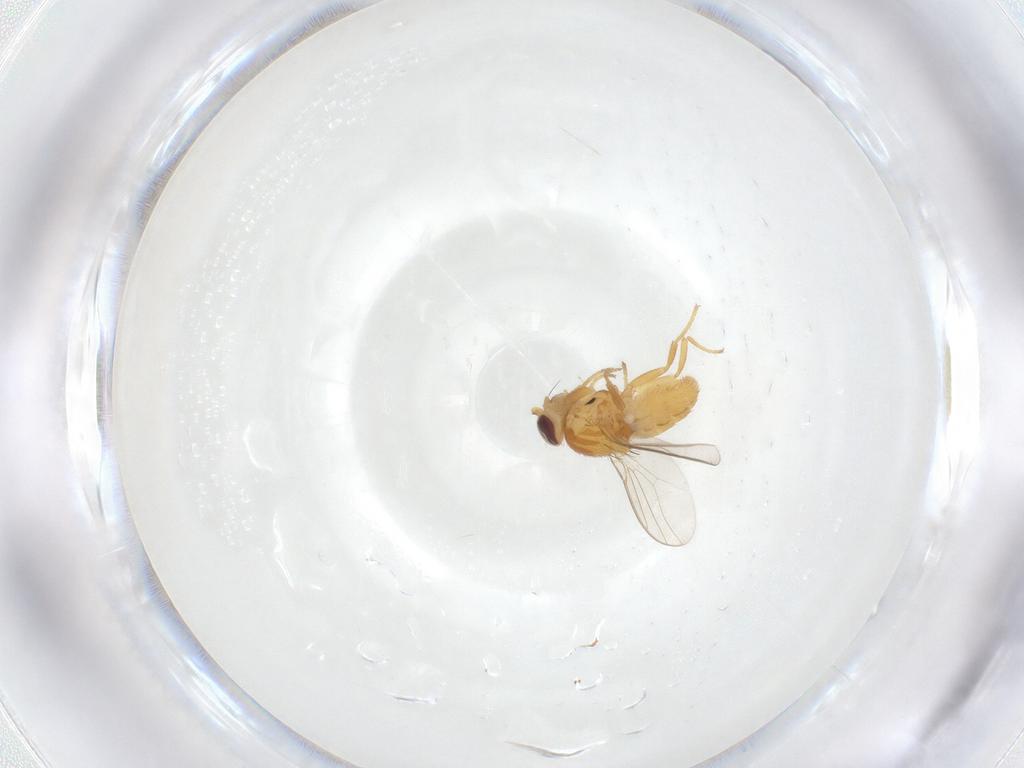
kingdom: Animalia
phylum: Arthropoda
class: Insecta
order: Diptera
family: Chloropidae
